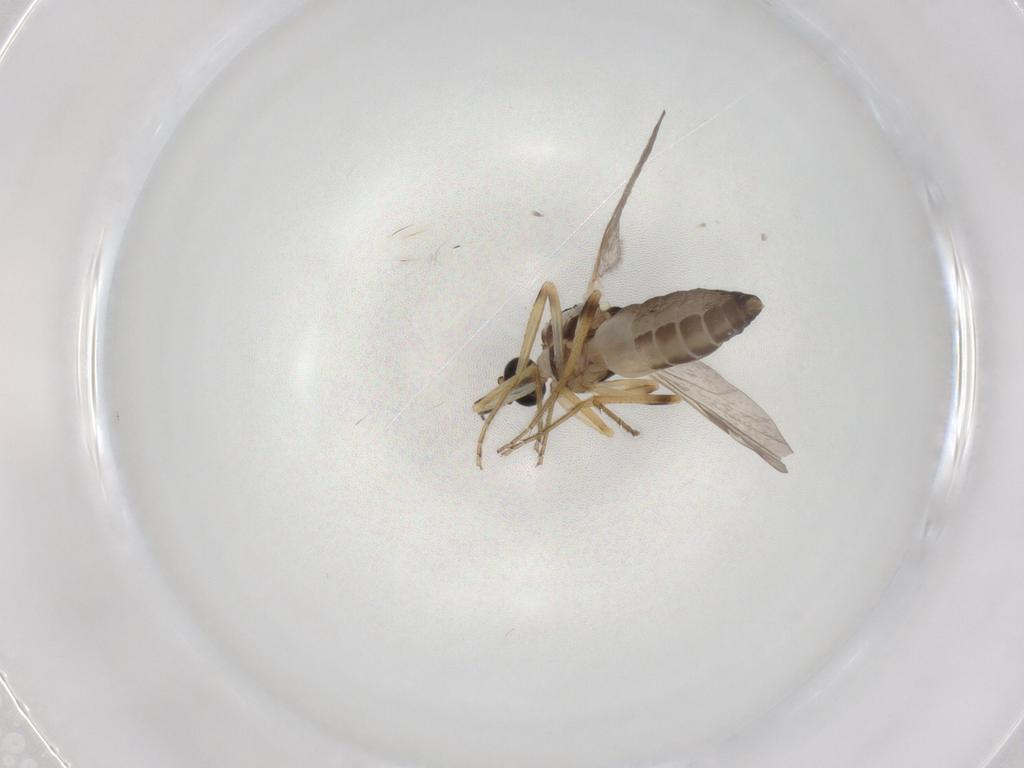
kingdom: Animalia
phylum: Arthropoda
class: Insecta
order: Diptera
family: Ceratopogonidae
